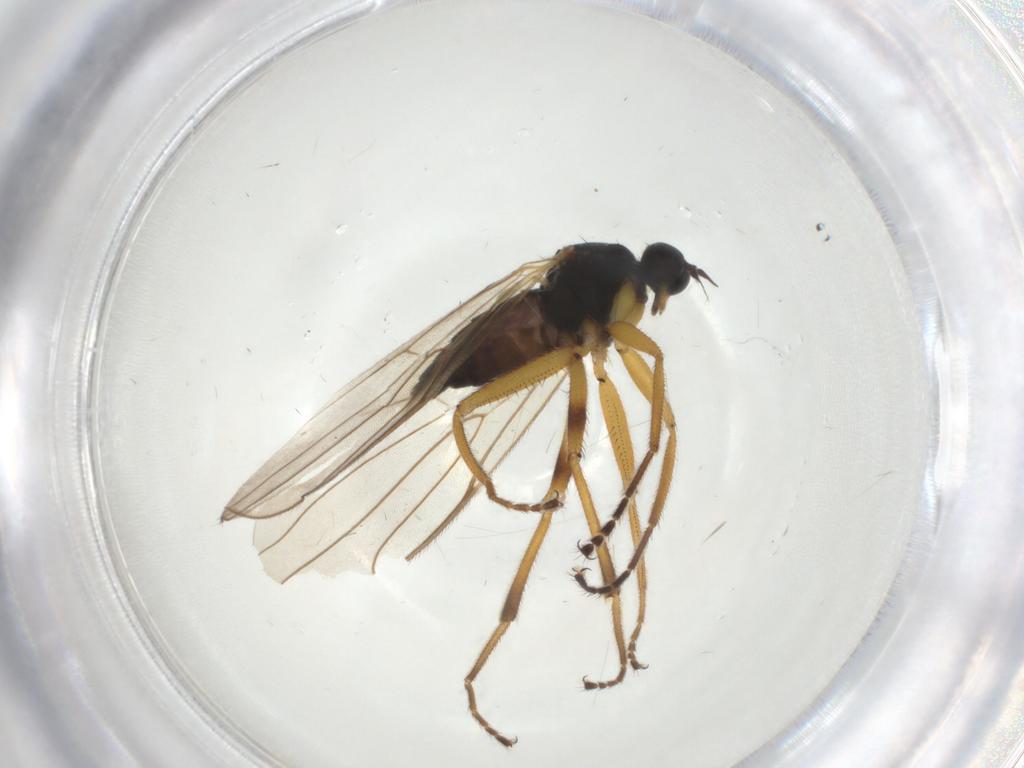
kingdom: Animalia
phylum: Arthropoda
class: Insecta
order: Diptera
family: Hybotidae
